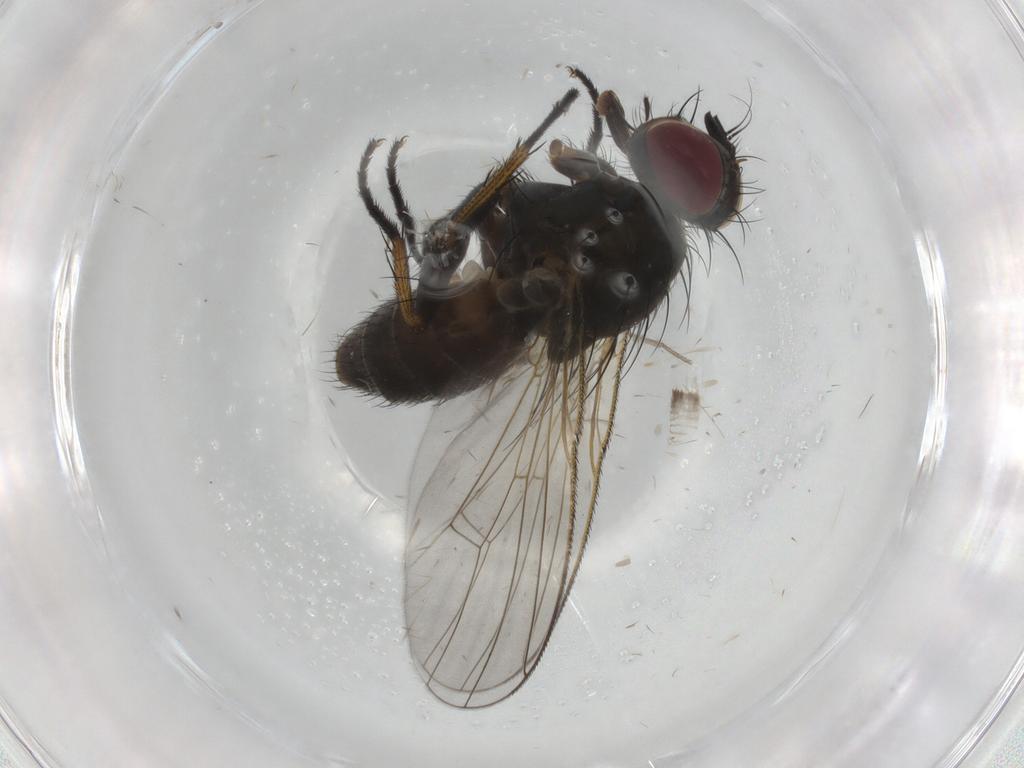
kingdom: Animalia
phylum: Arthropoda
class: Insecta
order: Diptera
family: Muscidae
